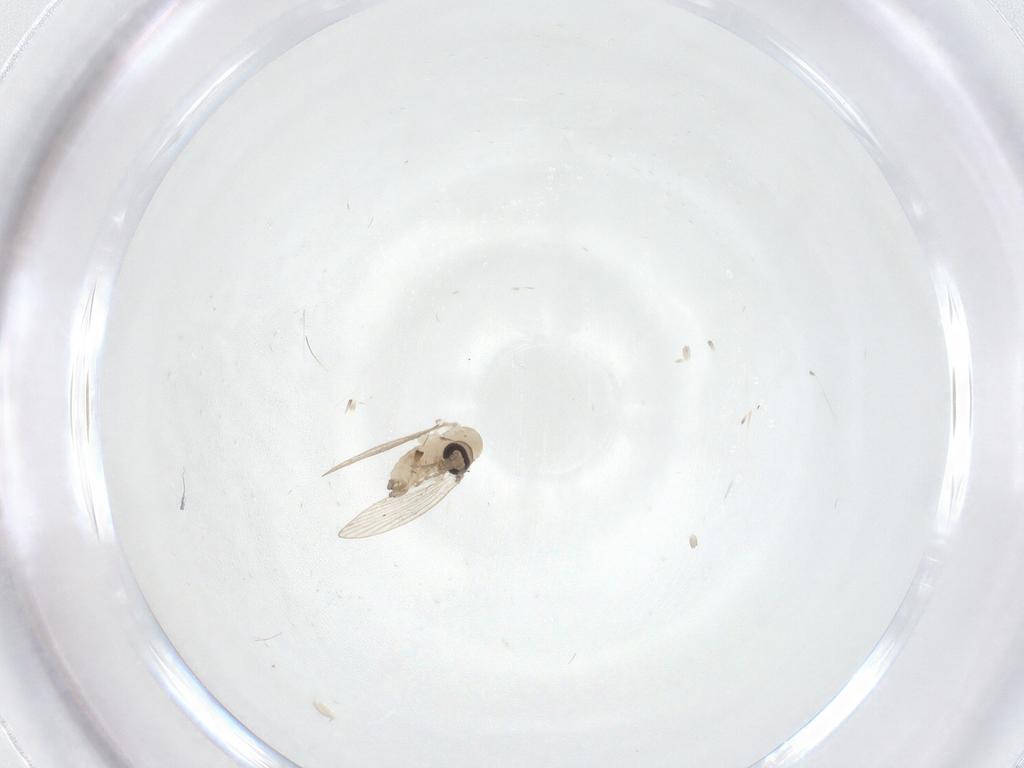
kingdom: Animalia
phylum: Arthropoda
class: Insecta
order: Diptera
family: Psychodidae
